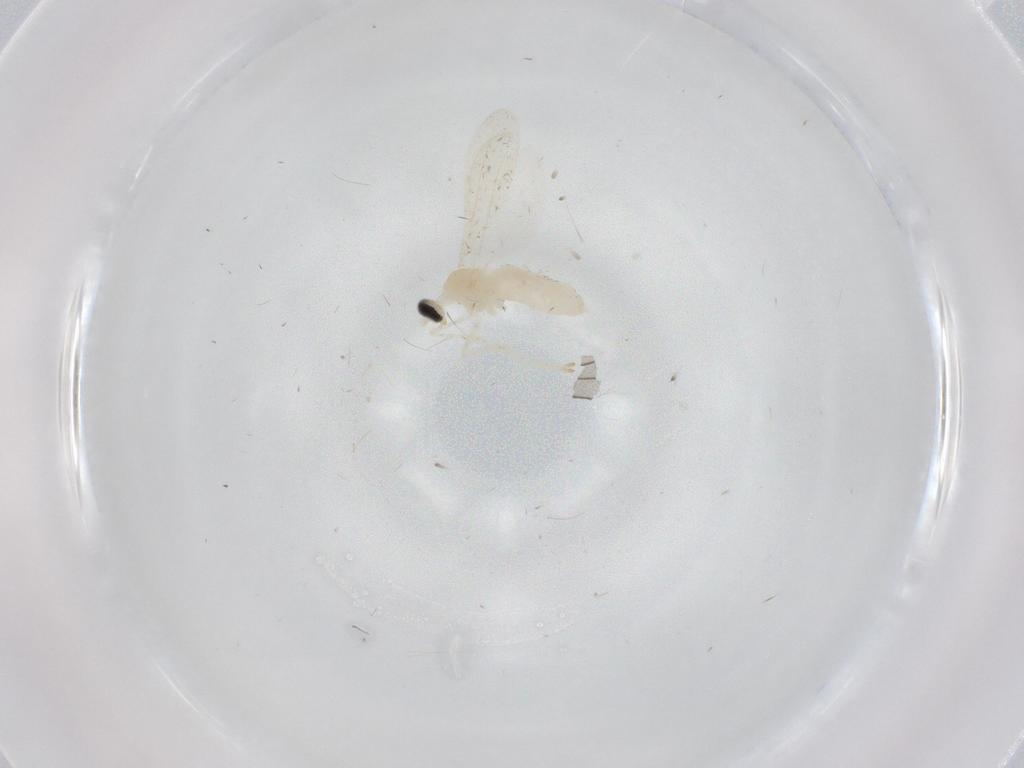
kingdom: Animalia
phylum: Arthropoda
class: Insecta
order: Diptera
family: Cecidomyiidae
